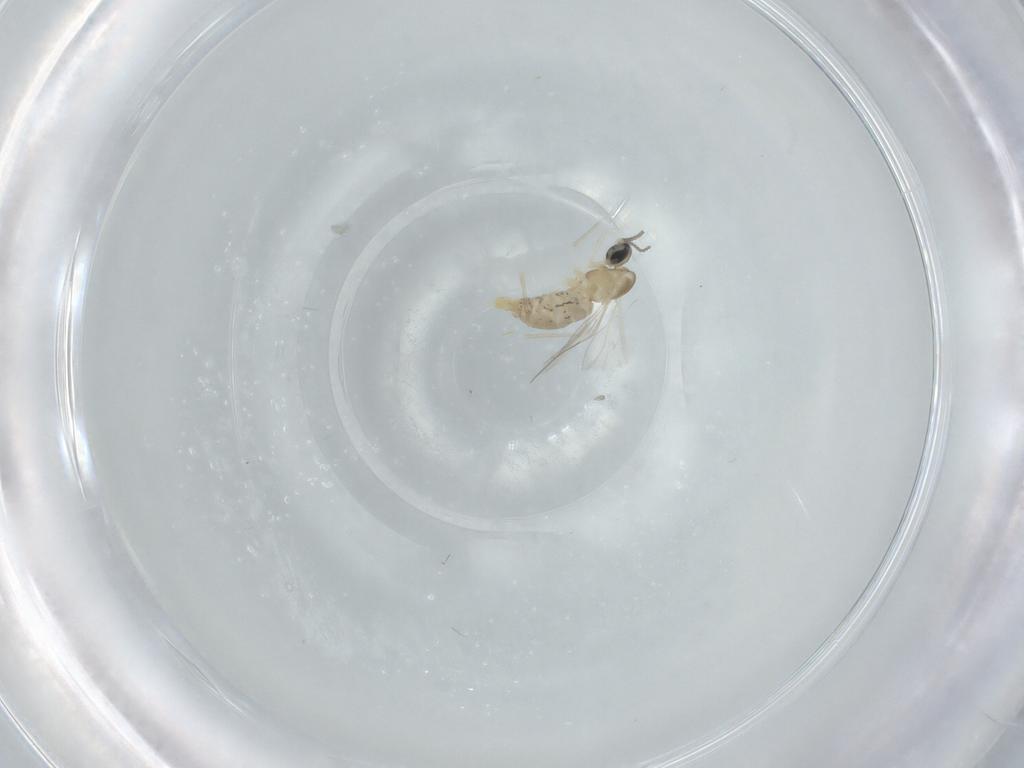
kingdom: Animalia
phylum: Arthropoda
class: Insecta
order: Diptera
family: Cecidomyiidae
